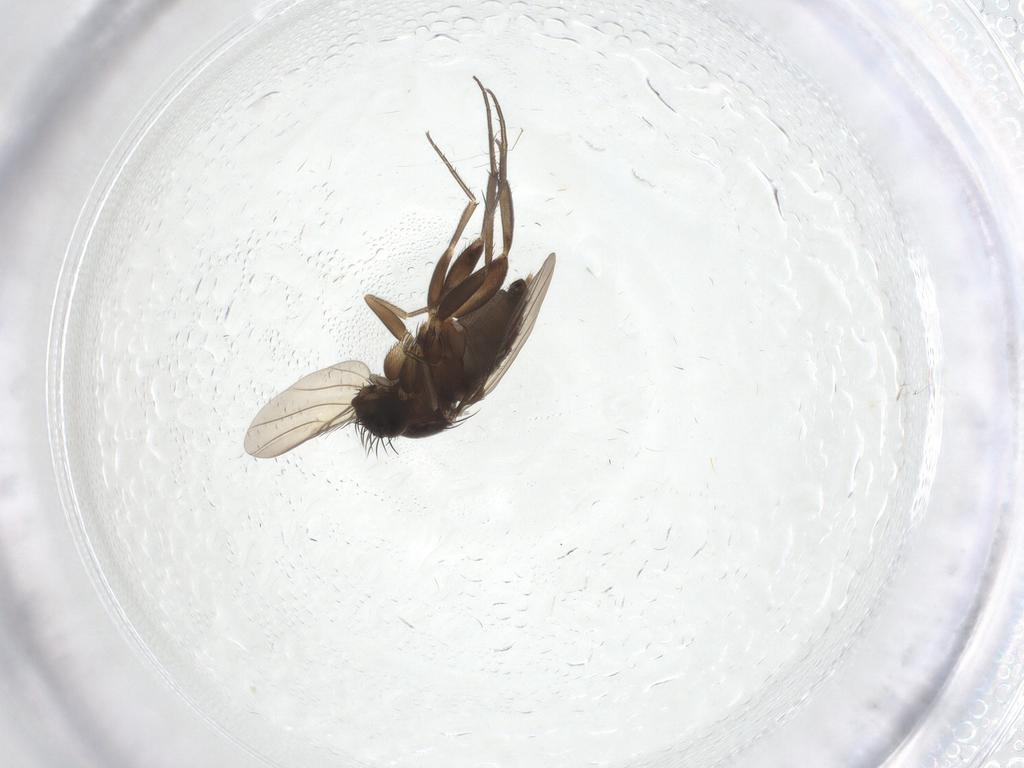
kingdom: Animalia
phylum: Arthropoda
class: Insecta
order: Diptera
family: Phoridae
